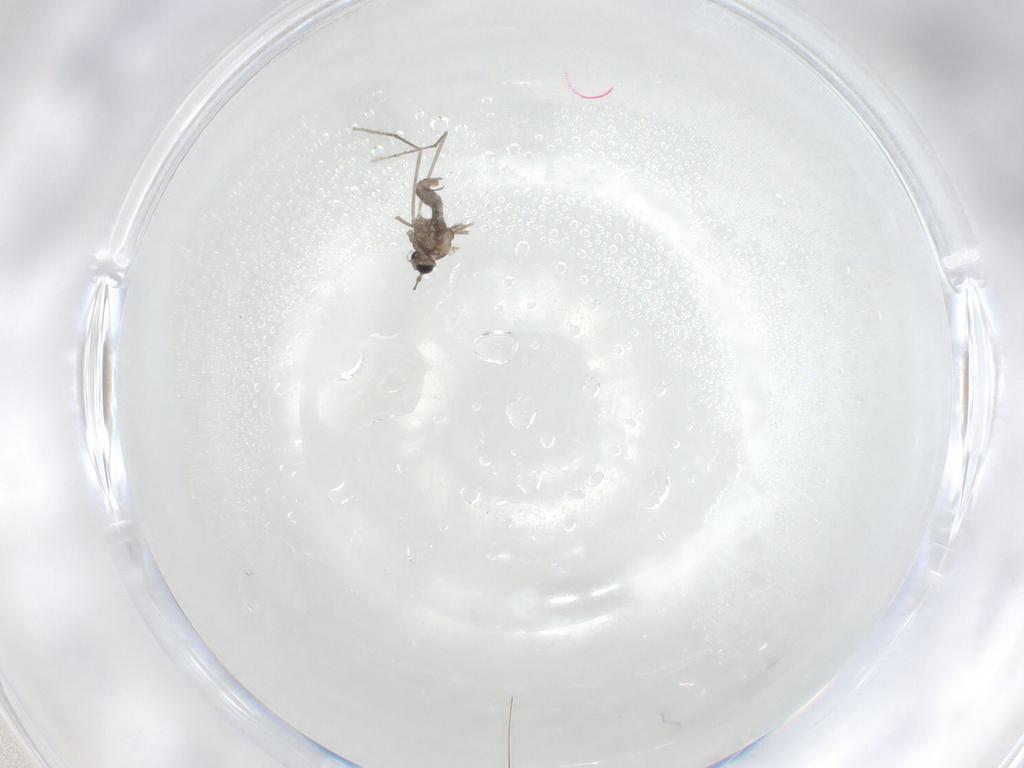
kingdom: Animalia
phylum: Arthropoda
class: Insecta
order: Diptera
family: Cecidomyiidae
